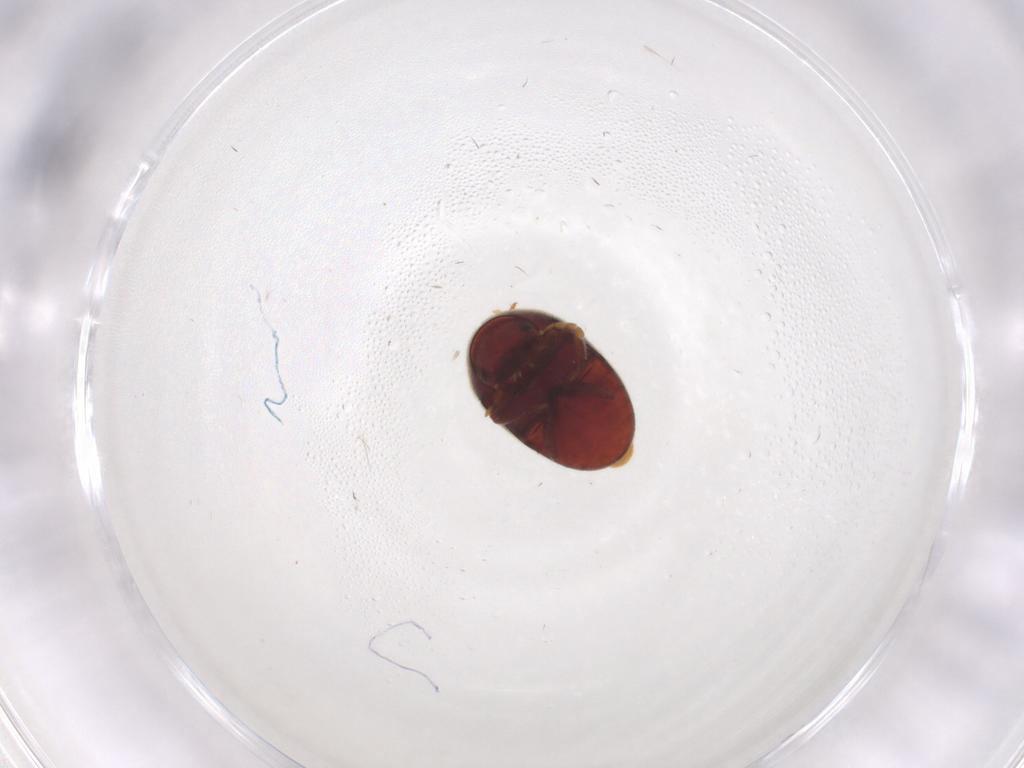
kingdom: Animalia
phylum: Arthropoda
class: Insecta
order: Coleoptera
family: Ptinidae
